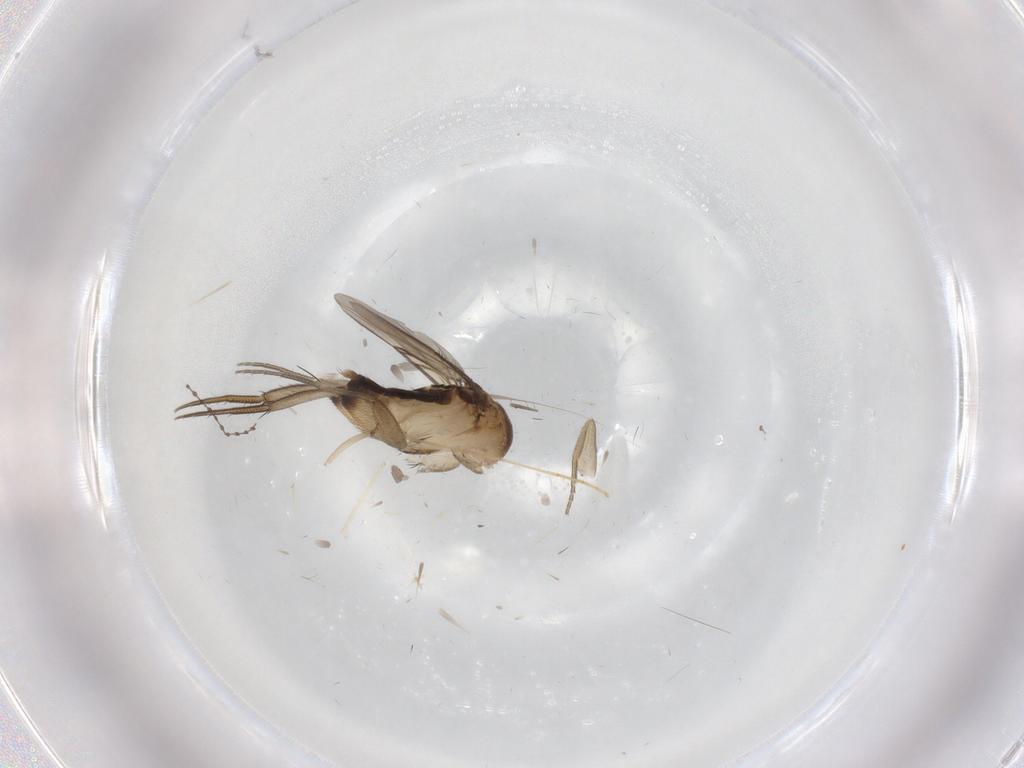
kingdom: Animalia
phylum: Arthropoda
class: Insecta
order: Diptera
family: Phoridae
